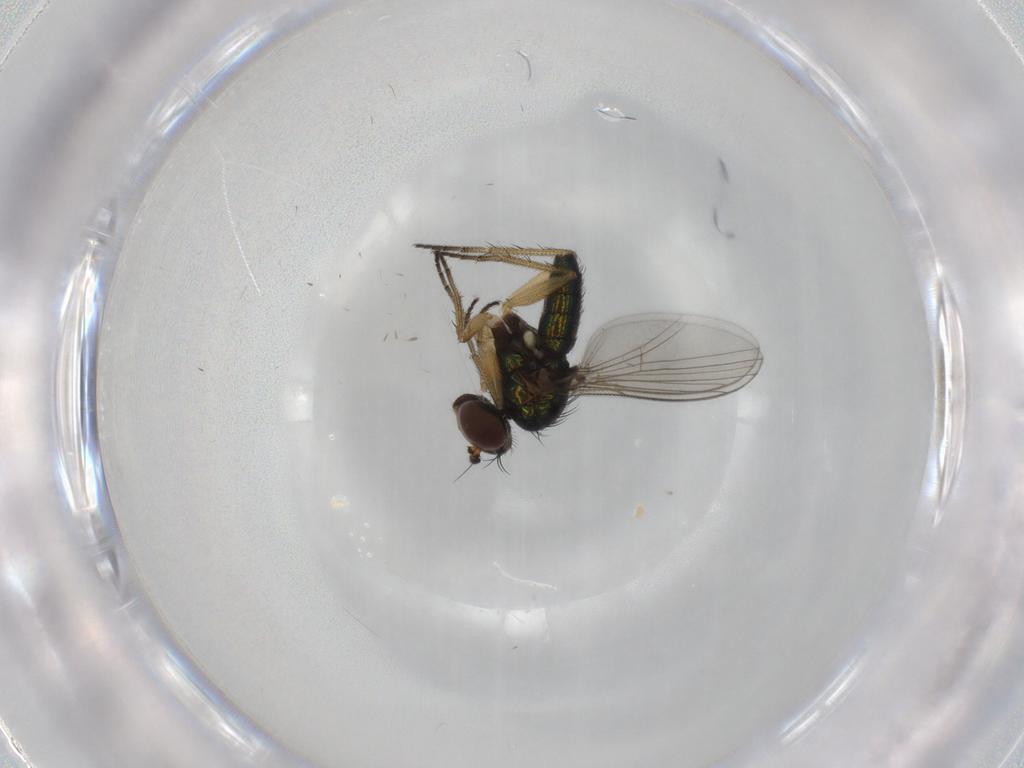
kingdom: Animalia
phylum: Arthropoda
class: Insecta
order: Diptera
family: Dolichopodidae
